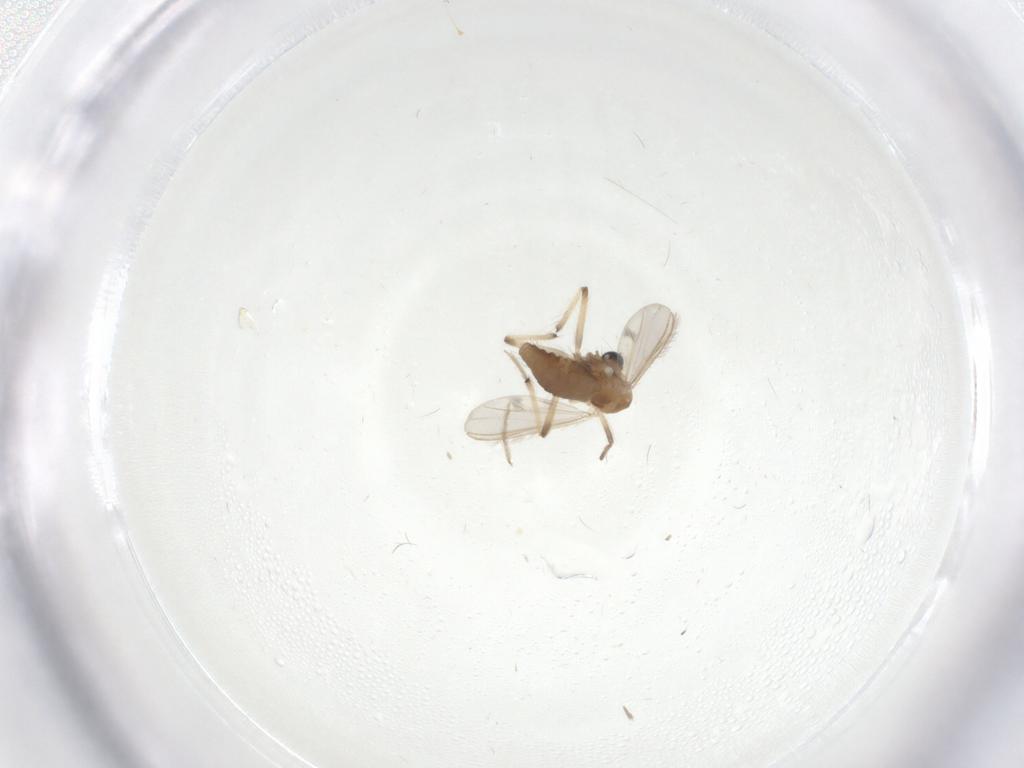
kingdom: Animalia
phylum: Arthropoda
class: Insecta
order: Diptera
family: Chironomidae
